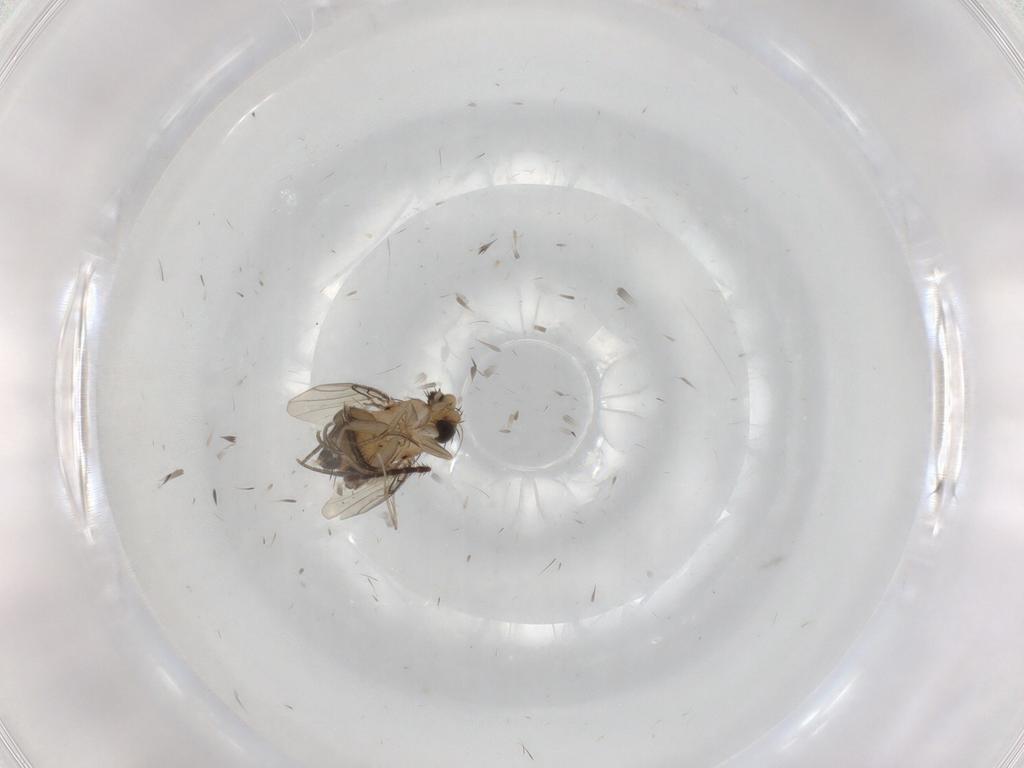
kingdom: Animalia
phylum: Arthropoda
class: Insecta
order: Diptera
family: Phoridae
